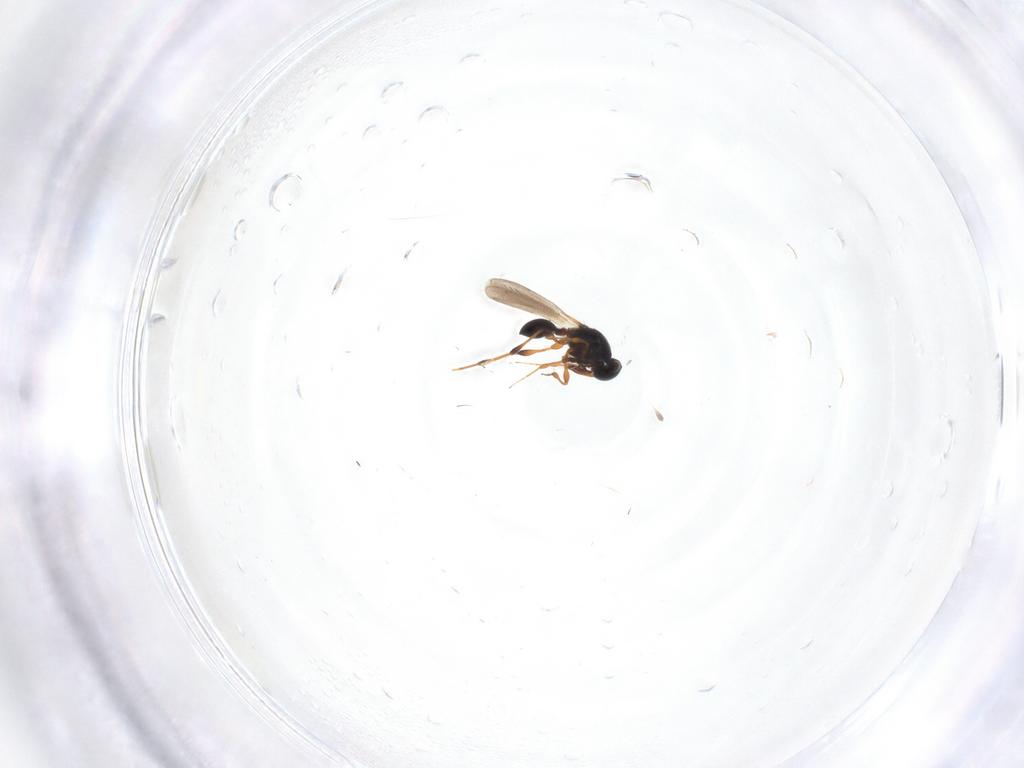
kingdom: Animalia
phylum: Arthropoda
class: Insecta
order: Hymenoptera
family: Platygastridae
